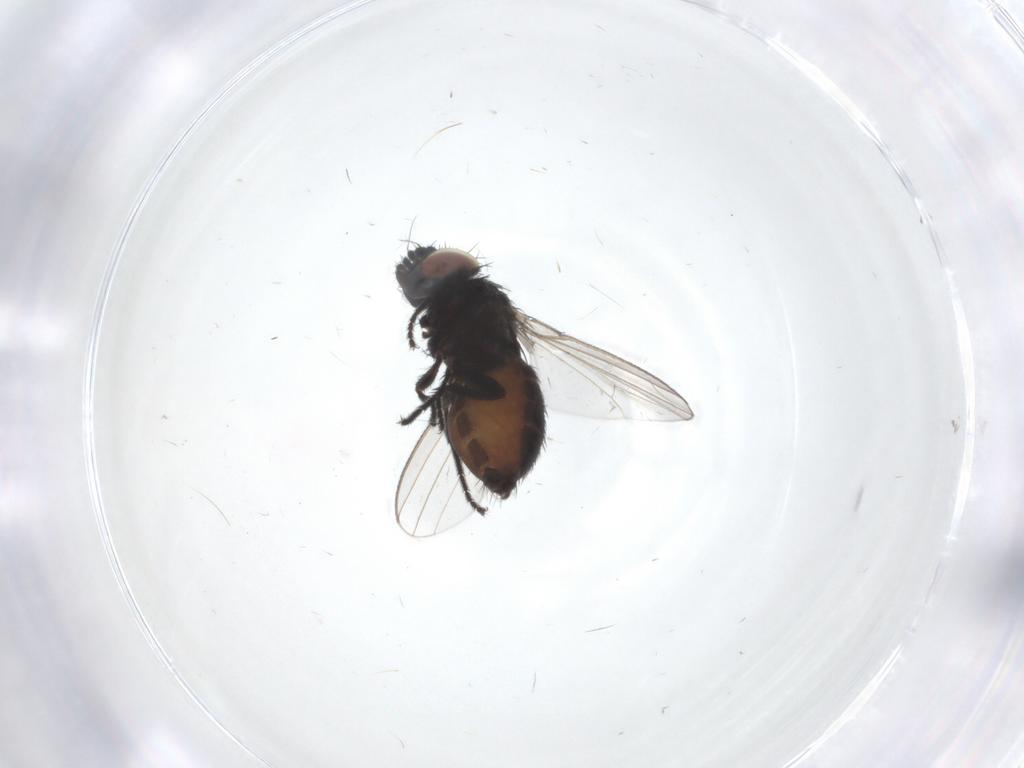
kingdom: Animalia
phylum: Arthropoda
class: Insecta
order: Diptera
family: Milichiidae
